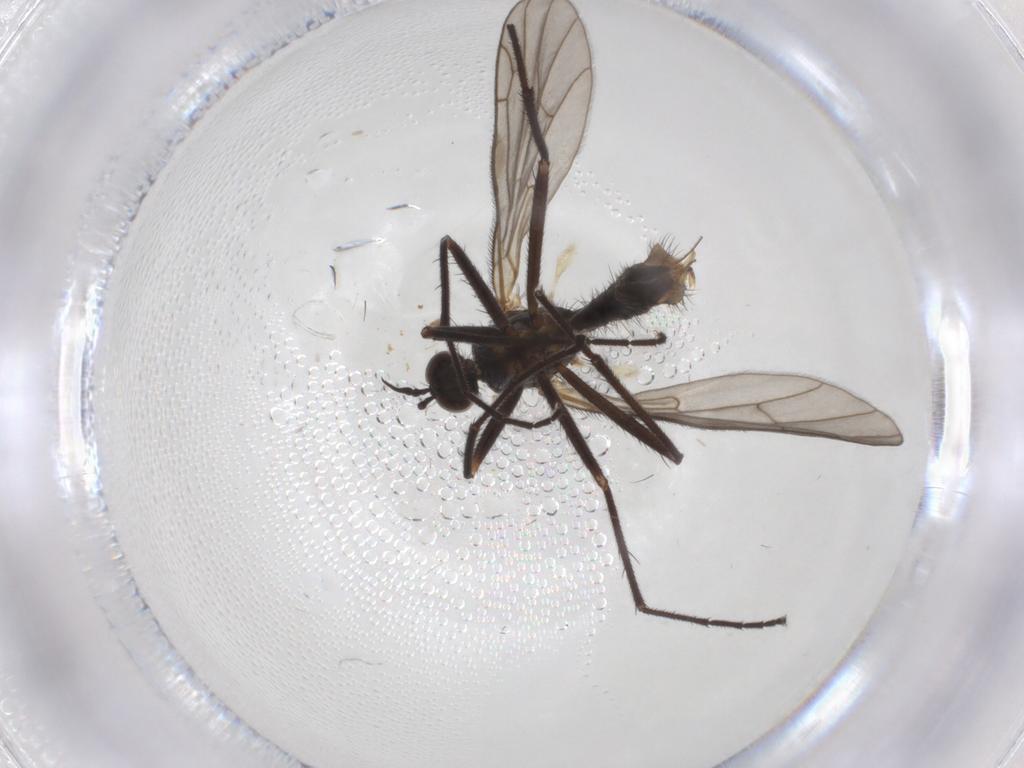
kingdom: Animalia
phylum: Arthropoda
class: Insecta
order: Diptera
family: Empididae
